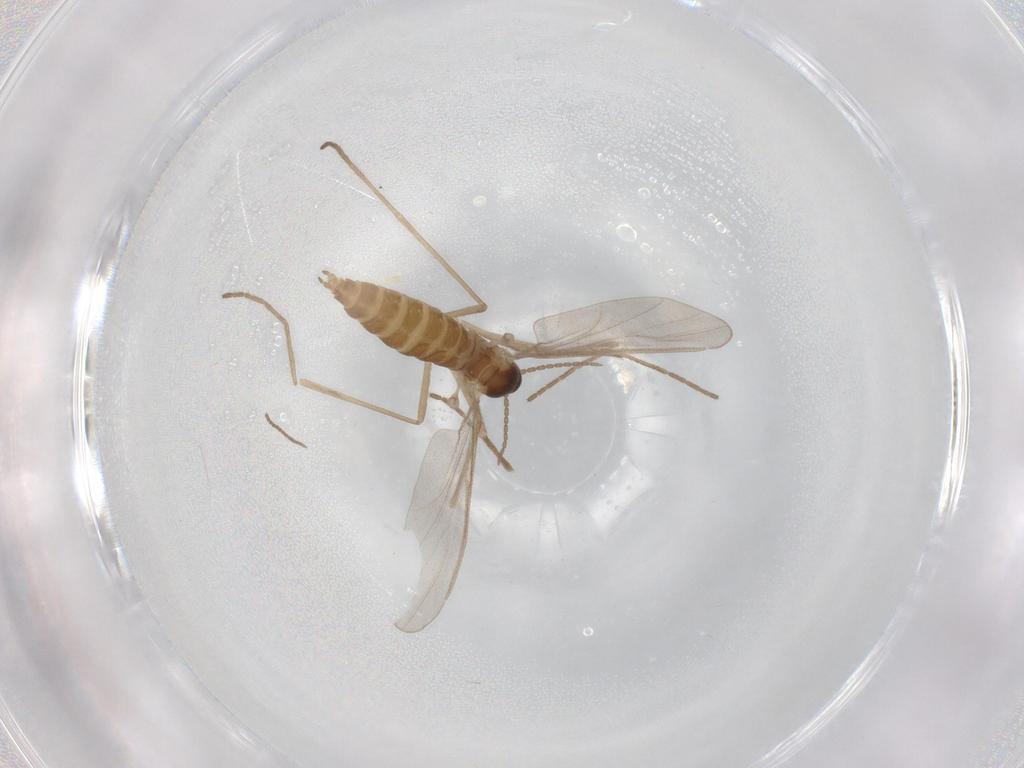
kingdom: Animalia
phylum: Arthropoda
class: Insecta
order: Diptera
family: Cecidomyiidae
